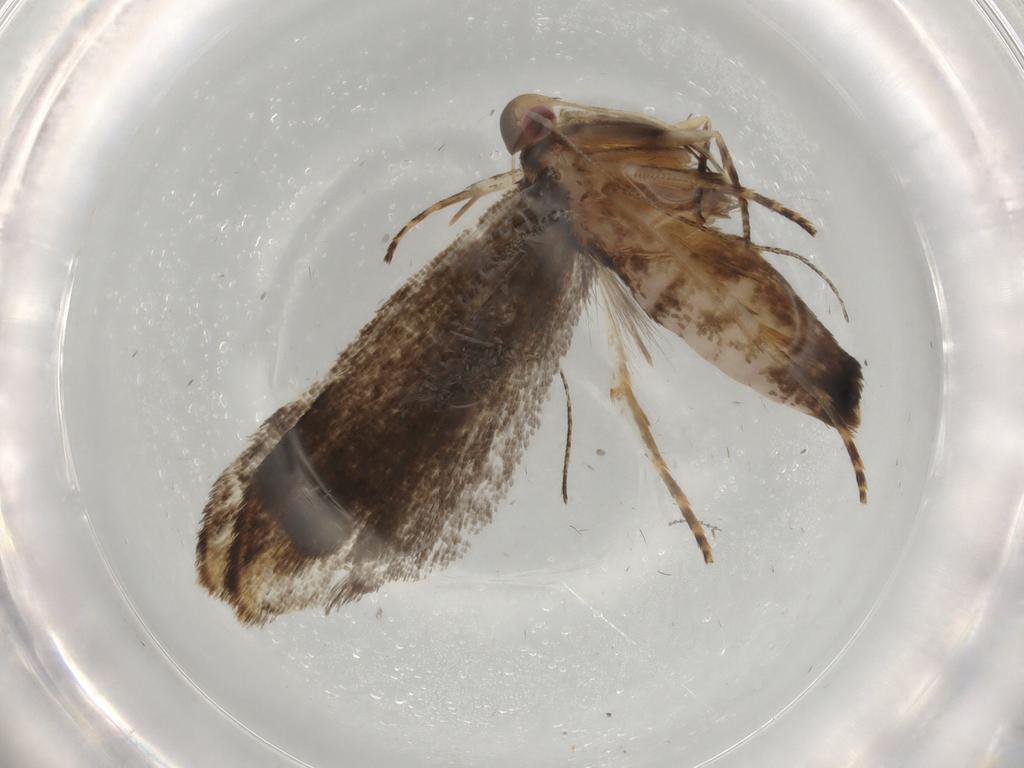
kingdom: Animalia
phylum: Arthropoda
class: Insecta
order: Lepidoptera
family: Gelechiidae
